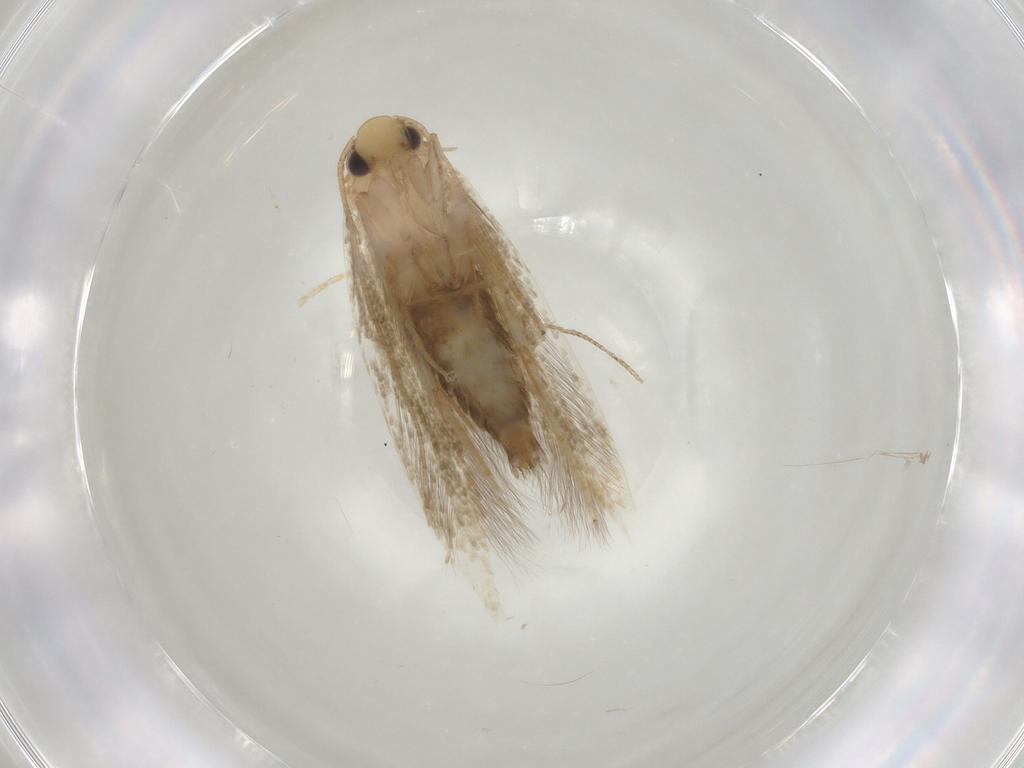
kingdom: Animalia
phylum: Arthropoda
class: Insecta
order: Lepidoptera
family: Tineidae
